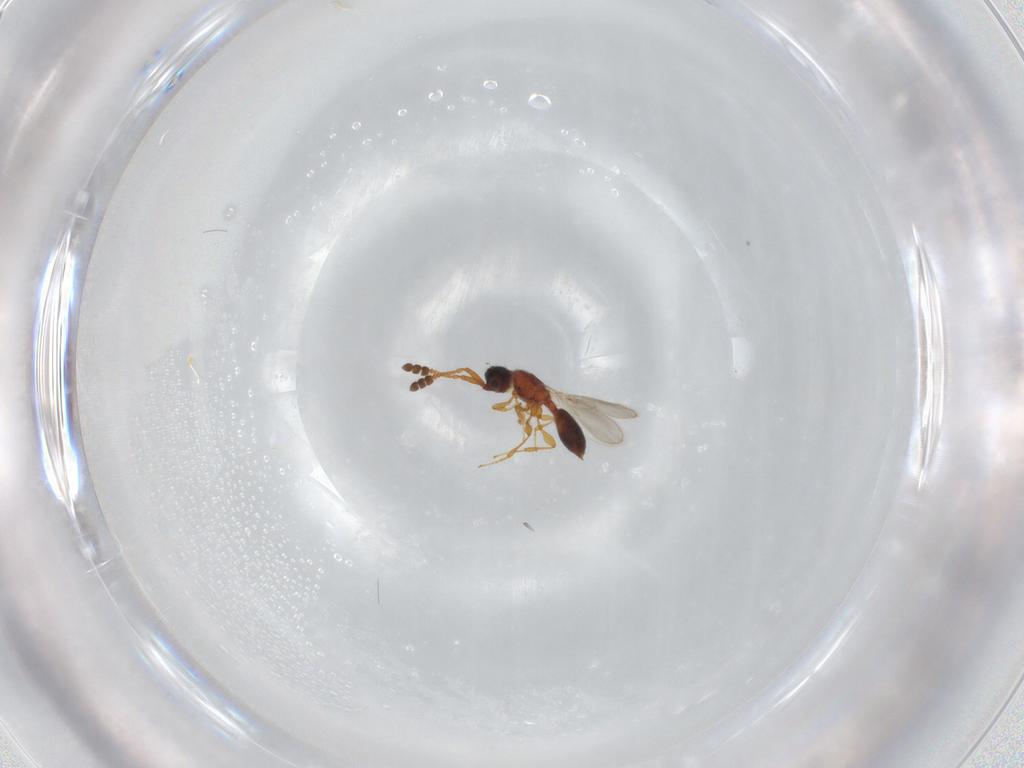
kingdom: Animalia
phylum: Arthropoda
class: Insecta
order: Hymenoptera
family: Diapriidae
